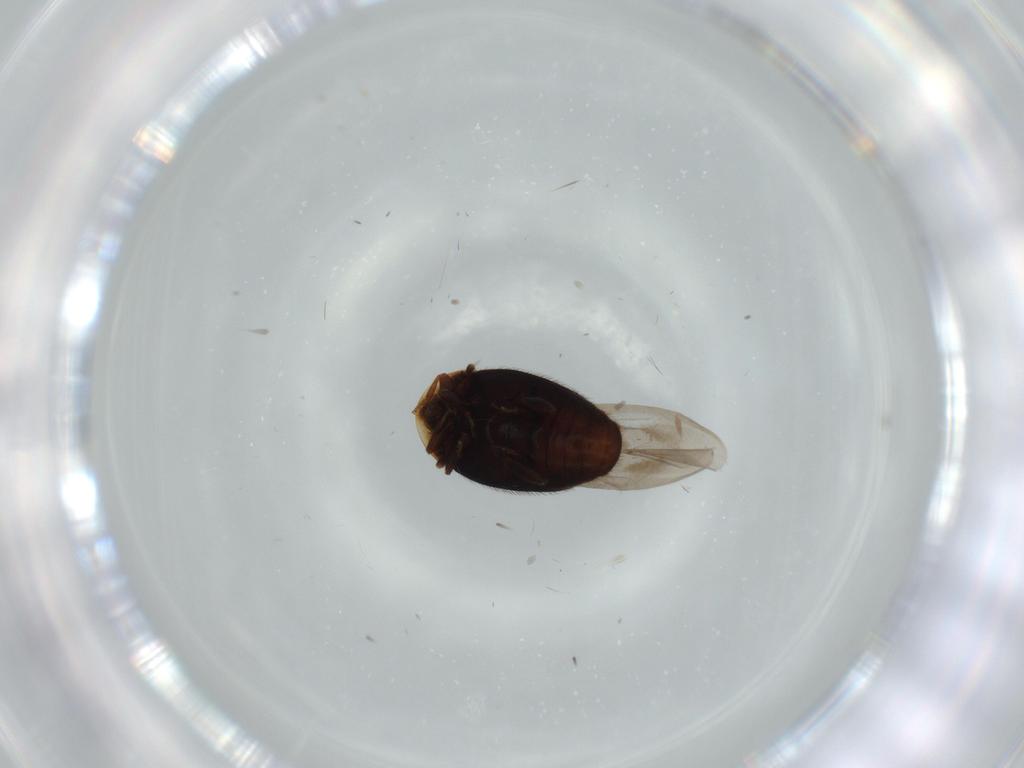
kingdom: Animalia
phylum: Arthropoda
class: Insecta
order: Coleoptera
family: Corylophidae
